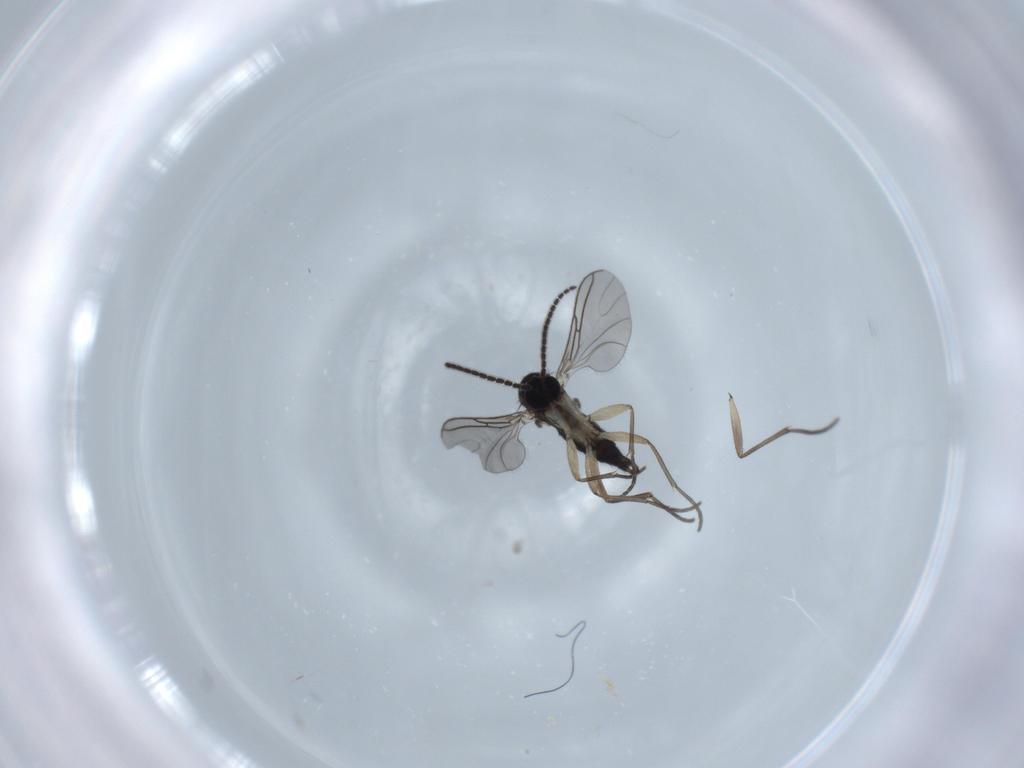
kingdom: Animalia
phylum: Arthropoda
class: Insecta
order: Diptera
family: Sciaridae
